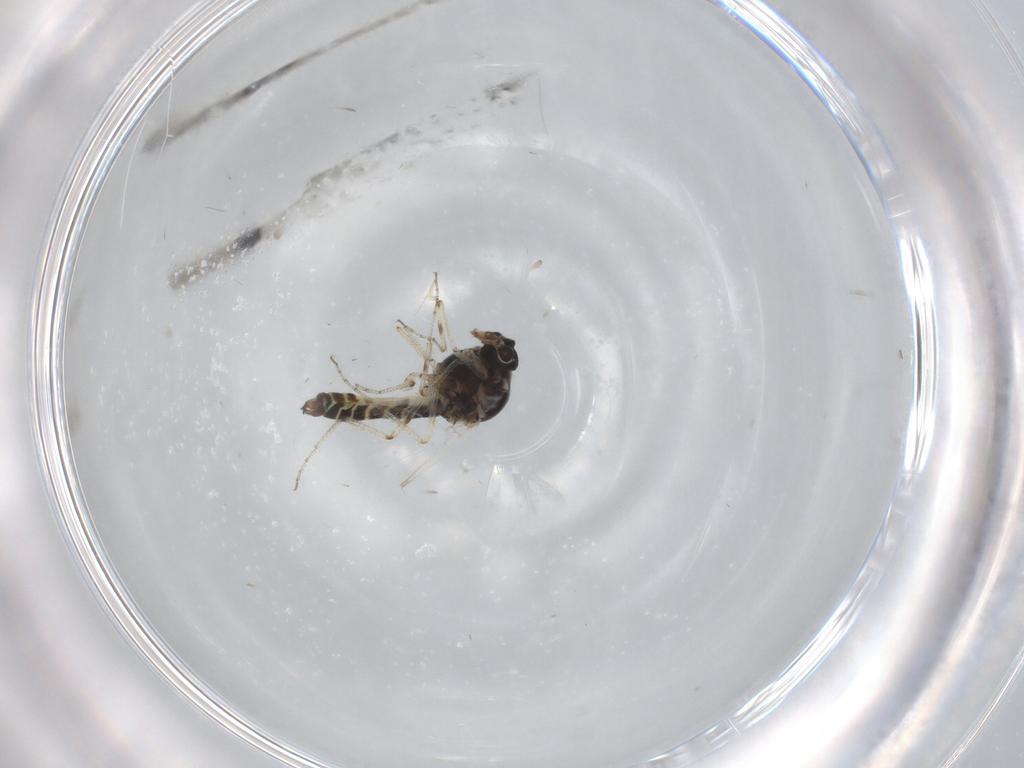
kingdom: Animalia
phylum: Arthropoda
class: Insecta
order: Diptera
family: Ceratopogonidae
